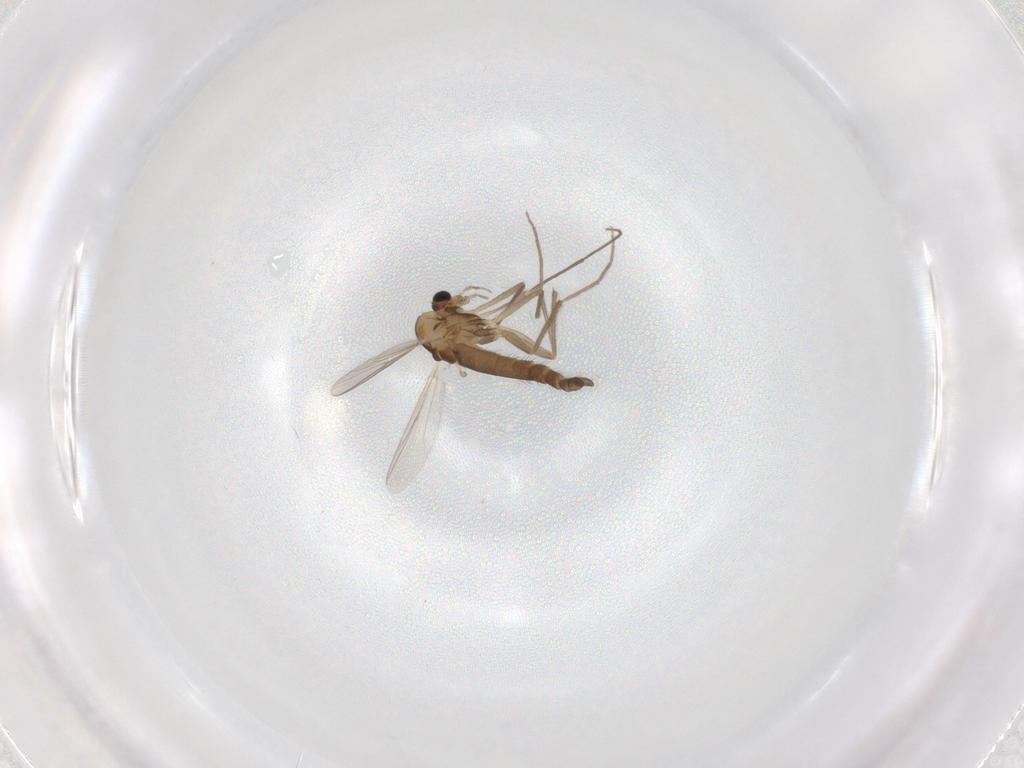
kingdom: Animalia
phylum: Arthropoda
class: Insecta
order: Diptera
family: Chironomidae
